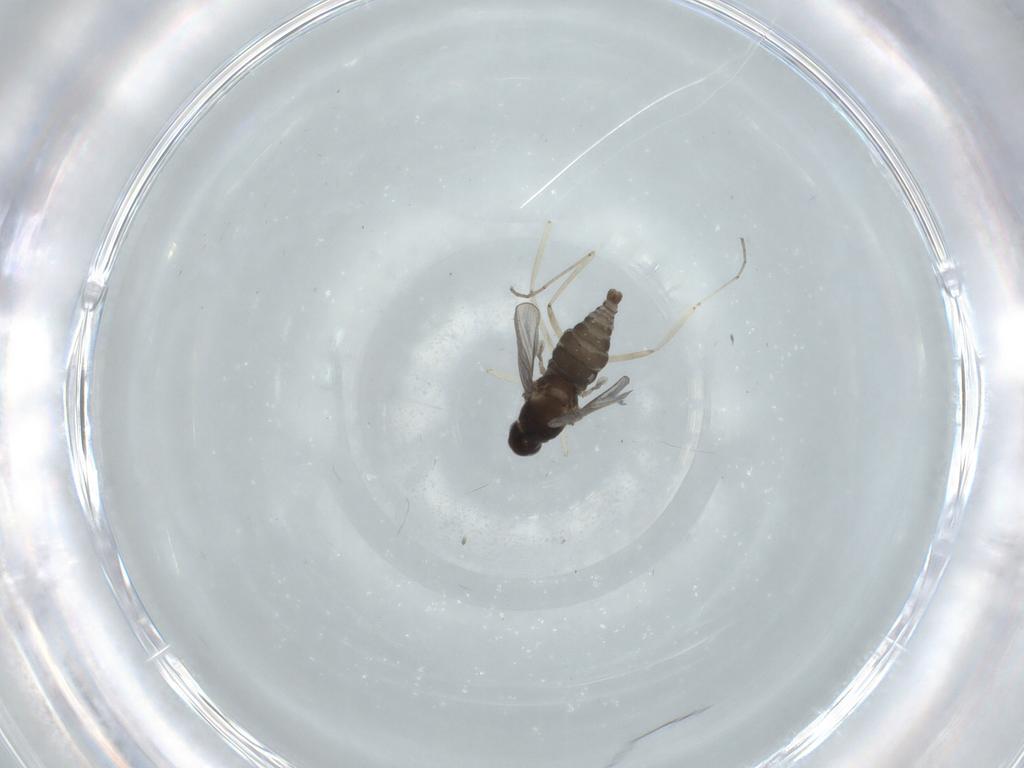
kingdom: Animalia
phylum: Arthropoda
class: Insecta
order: Diptera
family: Cecidomyiidae
